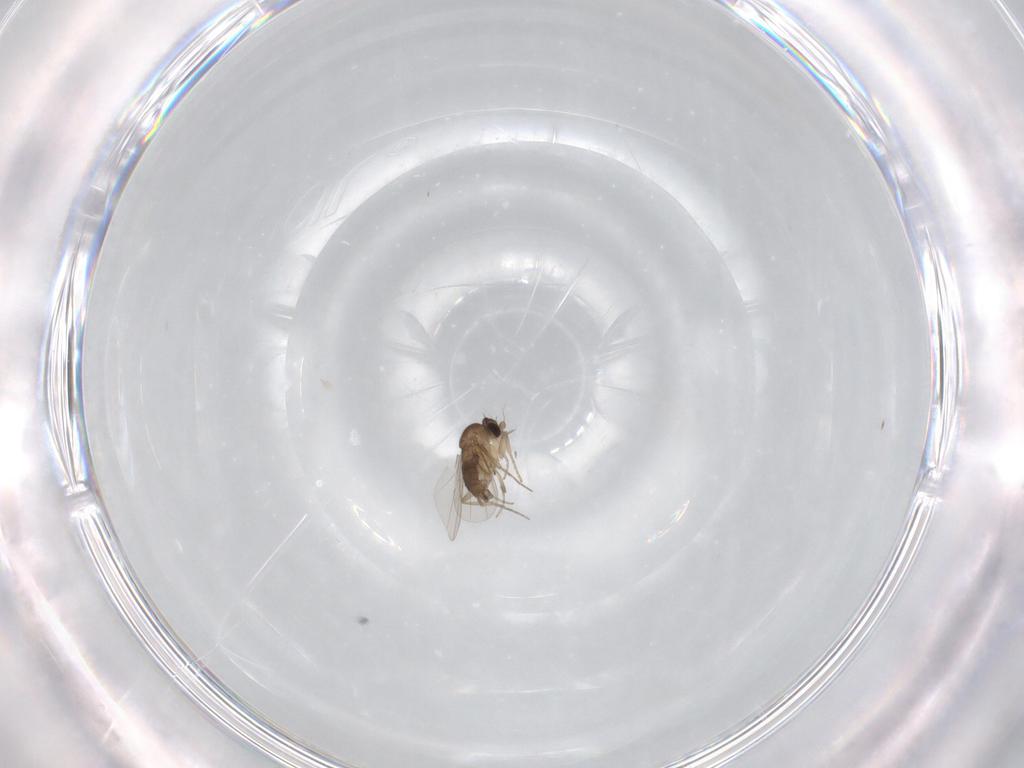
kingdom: Animalia
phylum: Arthropoda
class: Insecta
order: Diptera
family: Phoridae
